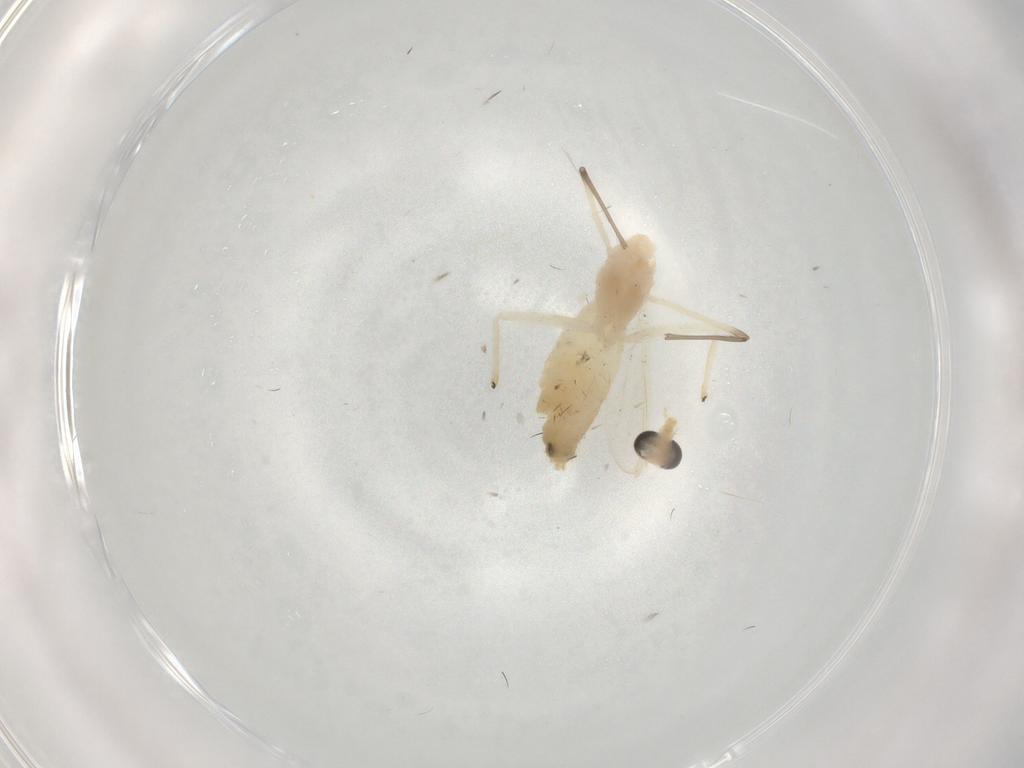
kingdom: Animalia
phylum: Arthropoda
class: Insecta
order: Diptera
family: Chironomidae
